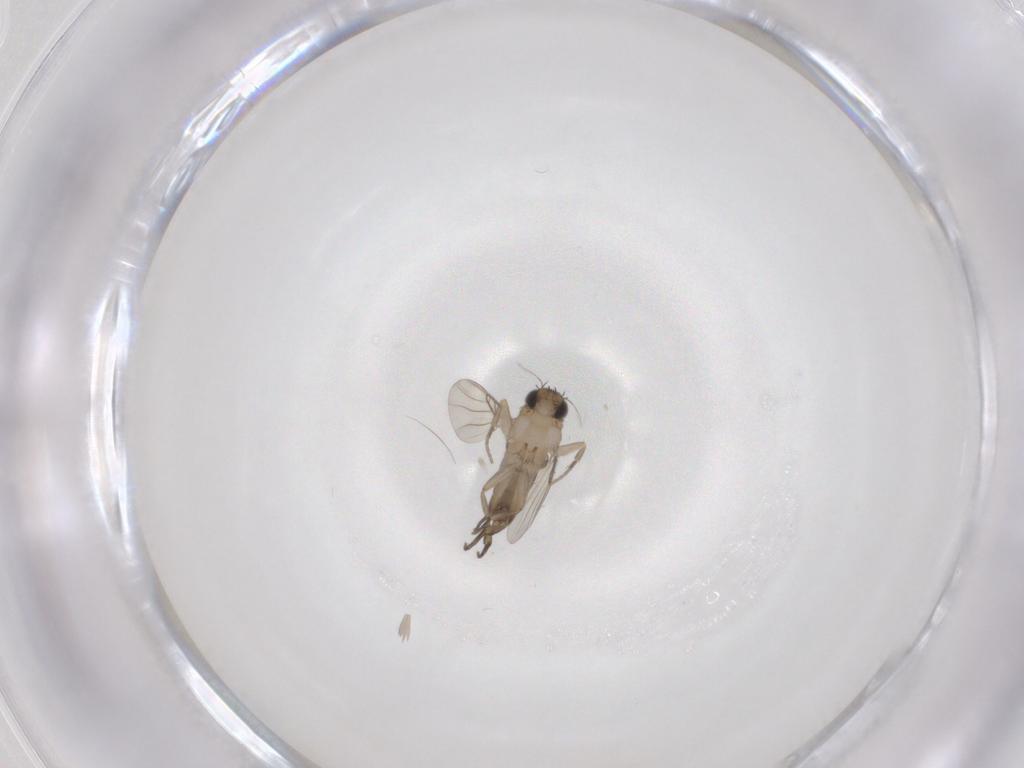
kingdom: Animalia
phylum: Arthropoda
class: Insecta
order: Diptera
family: Phoridae
